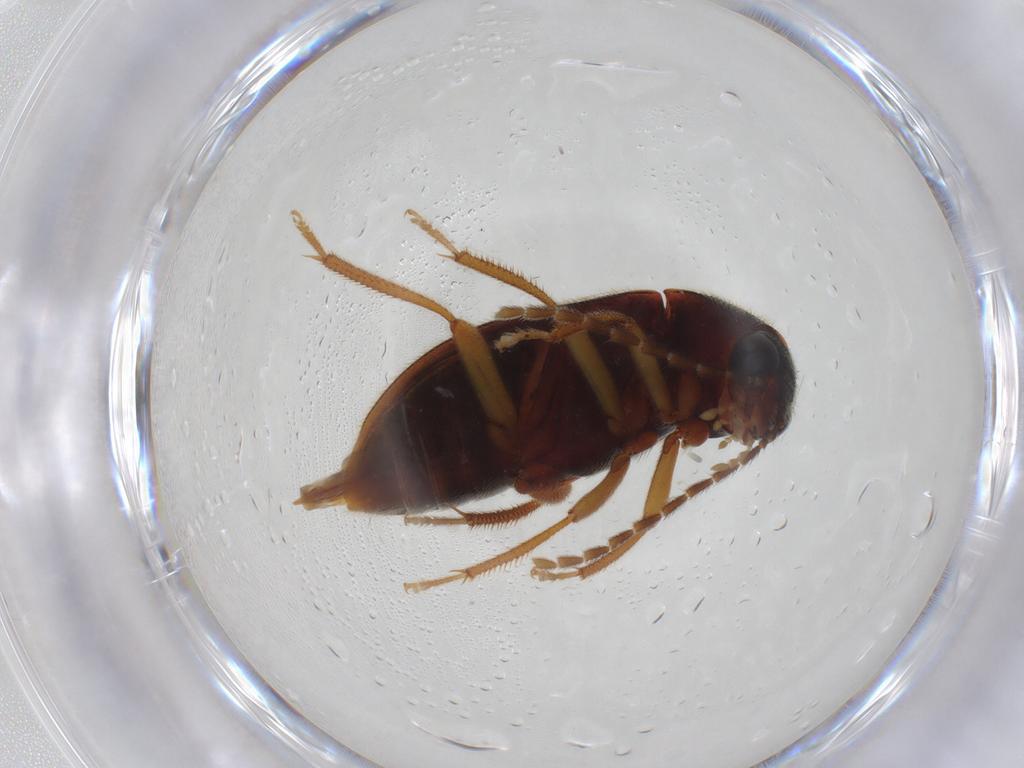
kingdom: Animalia
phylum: Arthropoda
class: Insecta
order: Coleoptera
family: Ptilodactylidae
